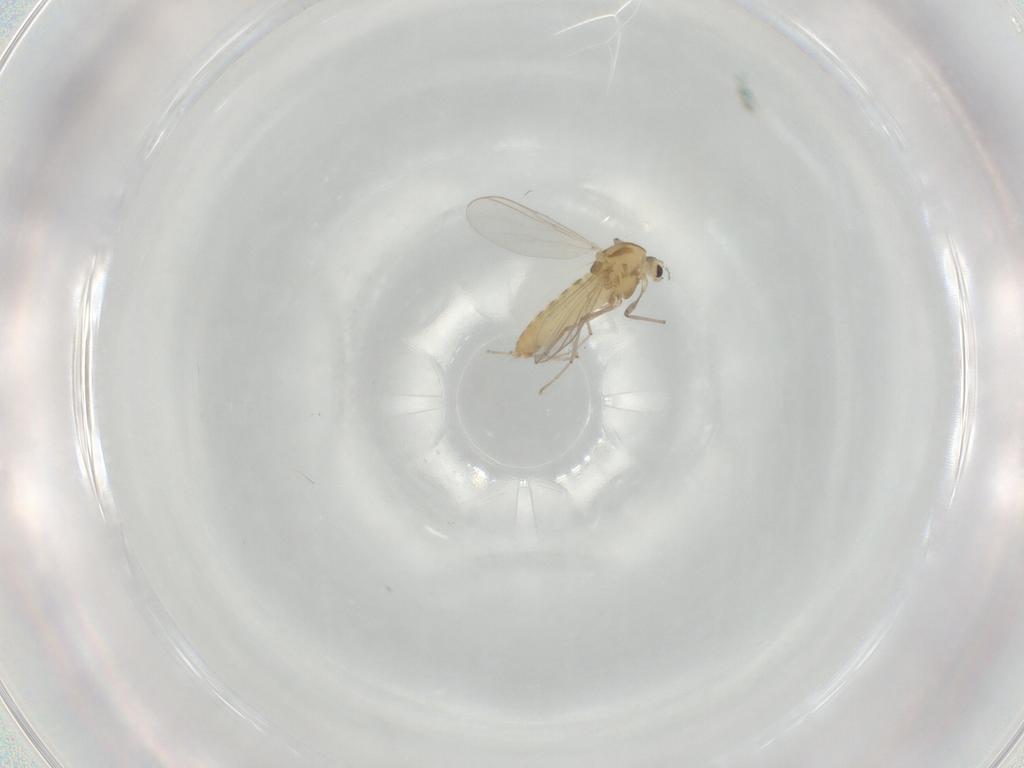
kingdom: Animalia
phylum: Arthropoda
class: Insecta
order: Diptera
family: Chironomidae
